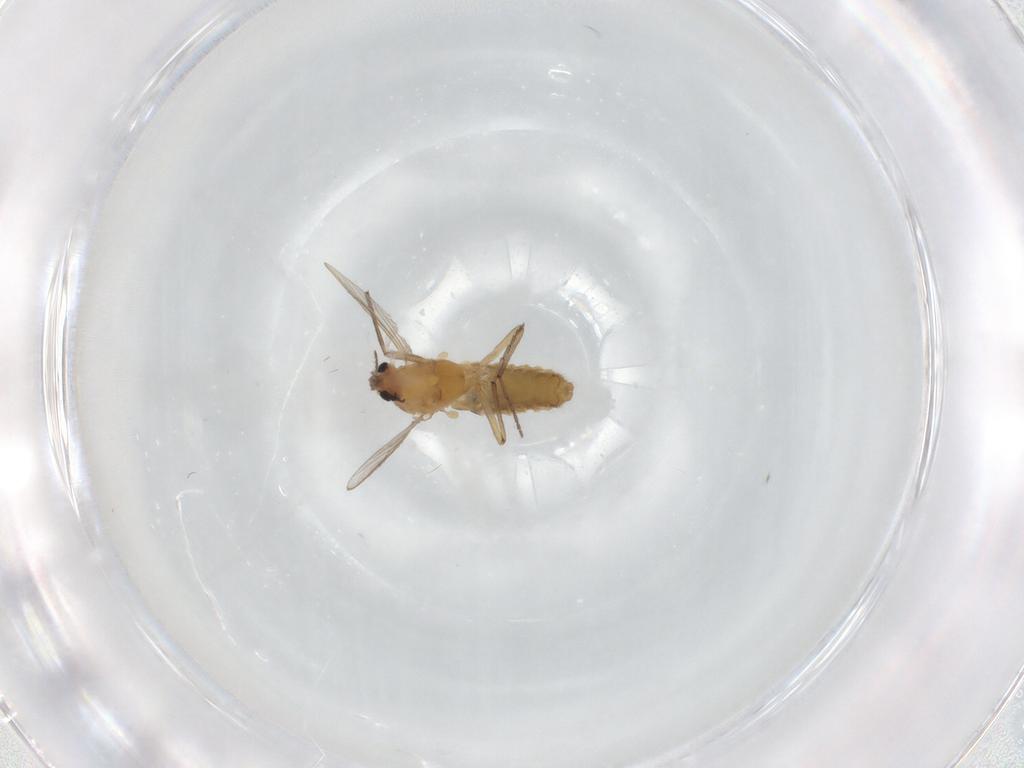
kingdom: Animalia
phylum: Arthropoda
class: Insecta
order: Diptera
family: Chironomidae
